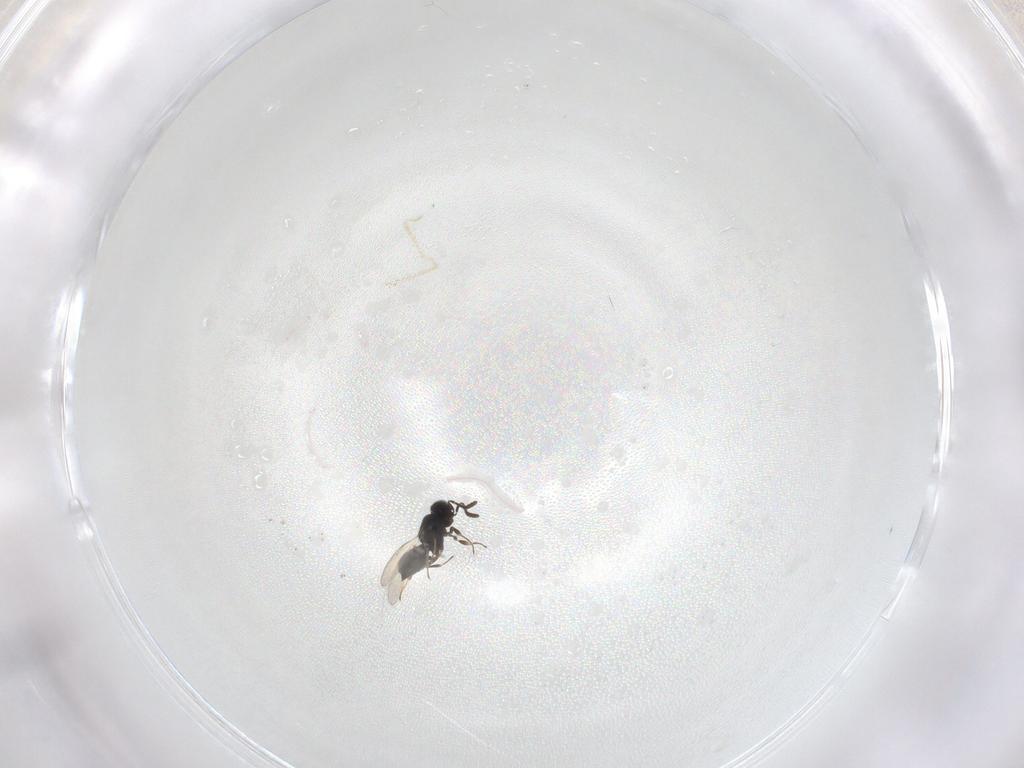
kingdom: Animalia
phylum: Arthropoda
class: Insecta
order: Hymenoptera
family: Scelionidae
